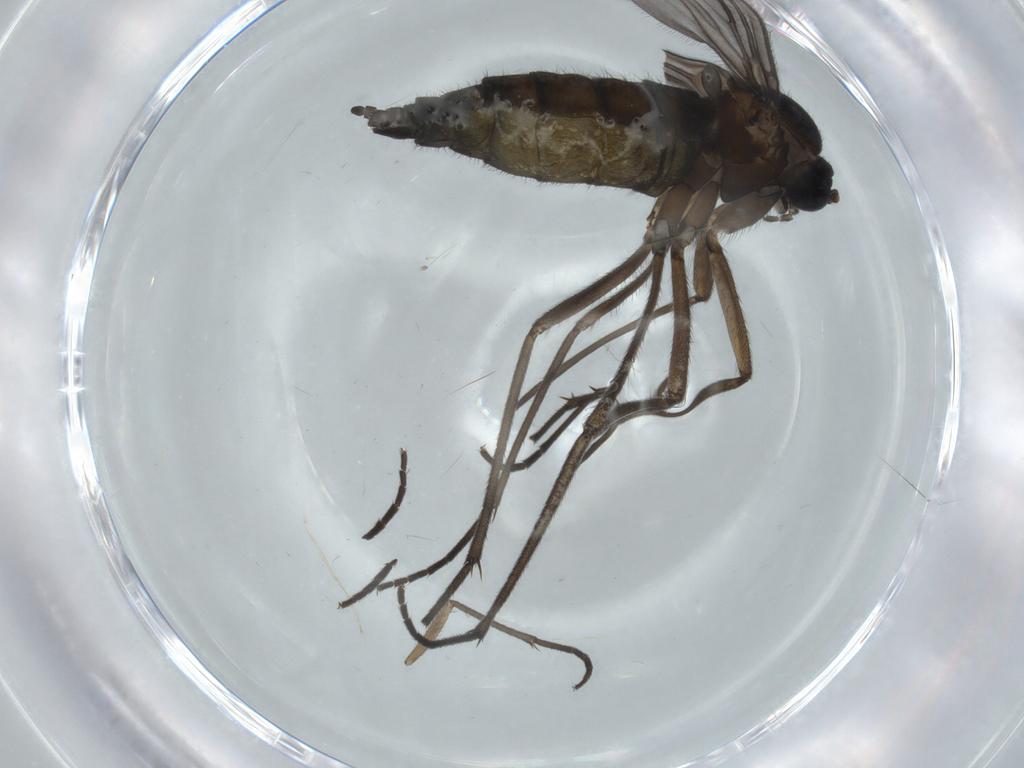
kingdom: Animalia
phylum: Arthropoda
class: Insecta
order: Diptera
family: Sciaridae
